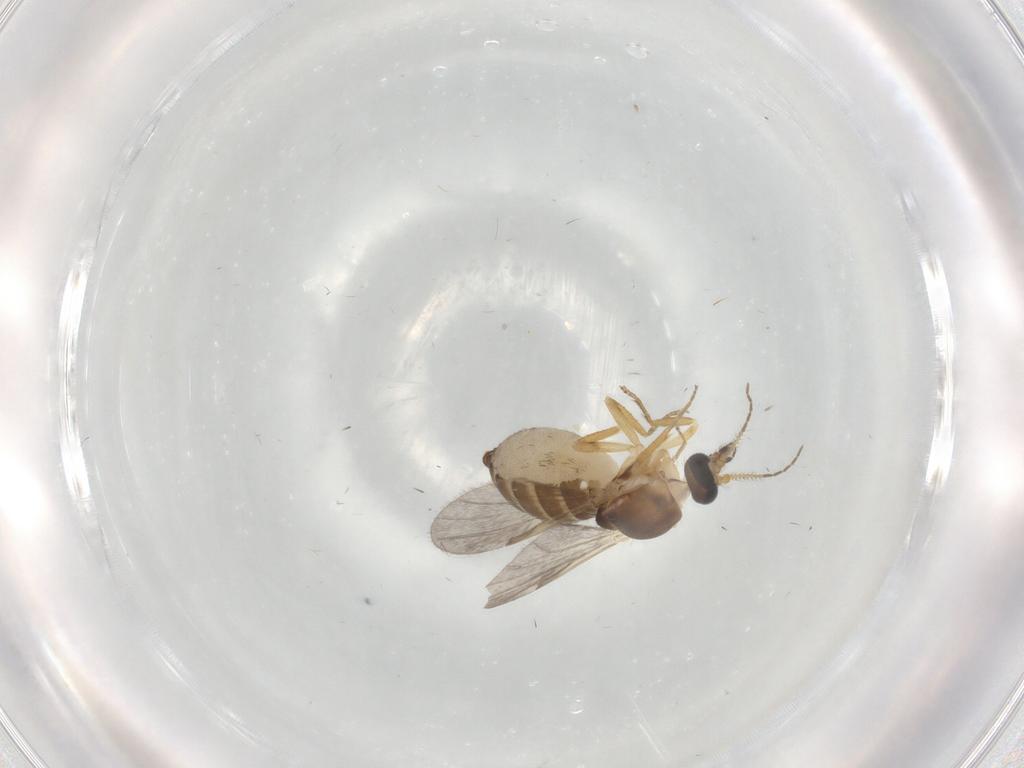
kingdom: Animalia
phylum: Arthropoda
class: Insecta
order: Diptera
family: Ceratopogonidae
